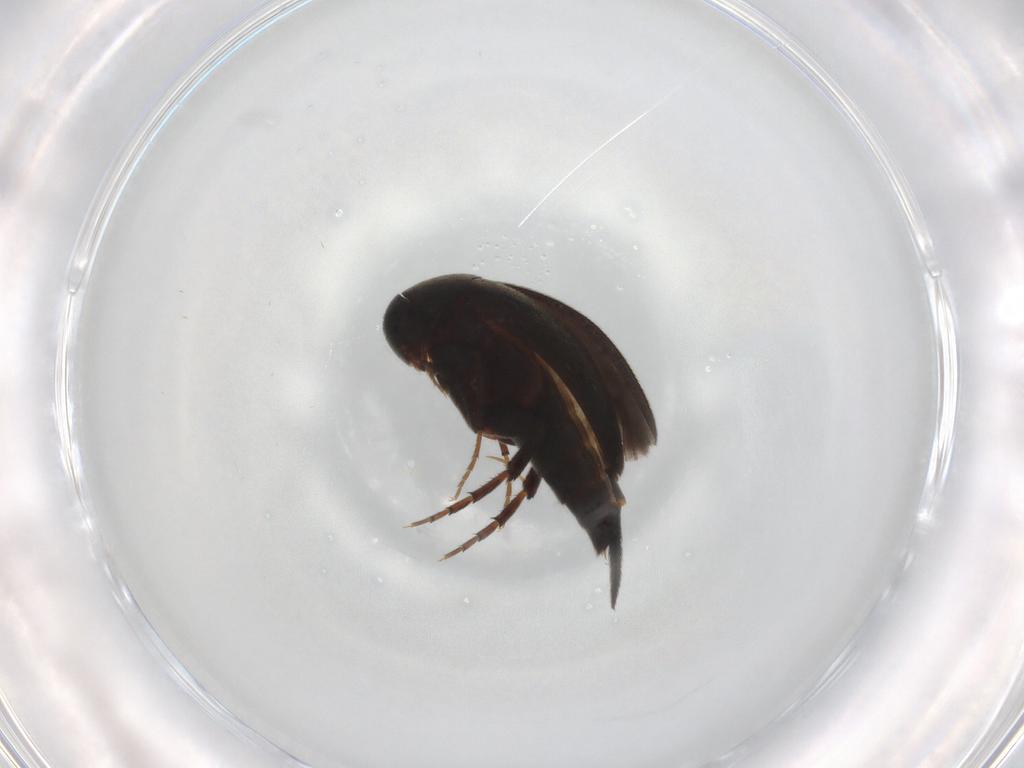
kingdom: Animalia
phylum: Arthropoda
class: Insecta
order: Coleoptera
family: Mordellidae
